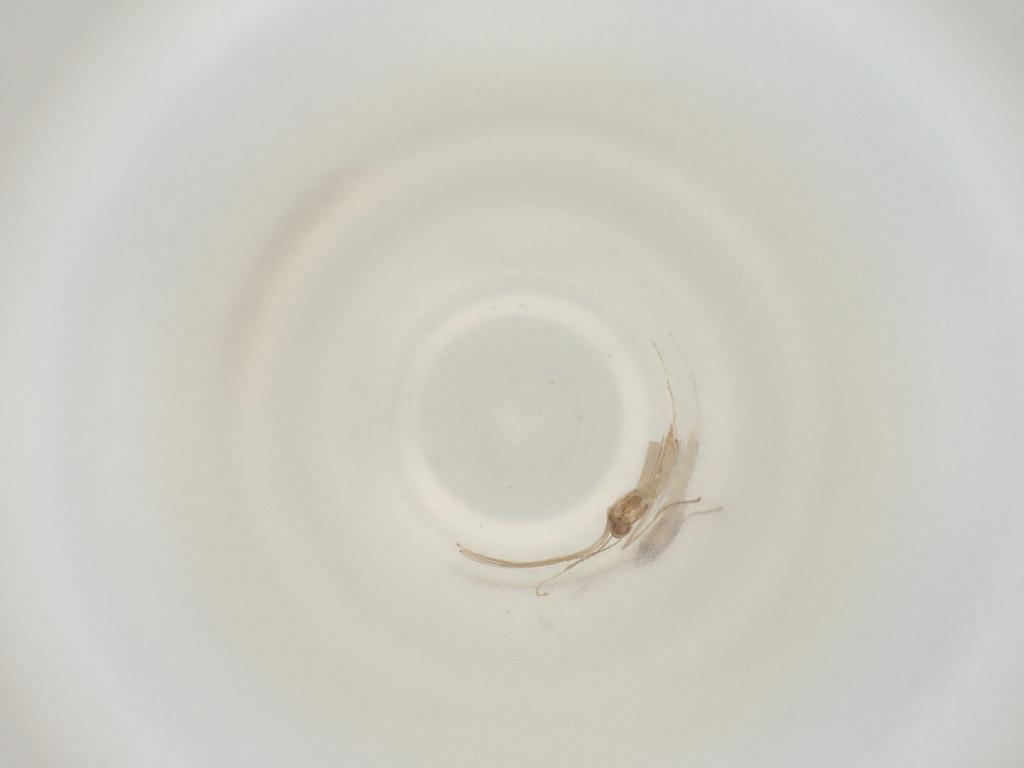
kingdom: Animalia
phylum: Arthropoda
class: Insecta
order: Diptera
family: Cecidomyiidae
